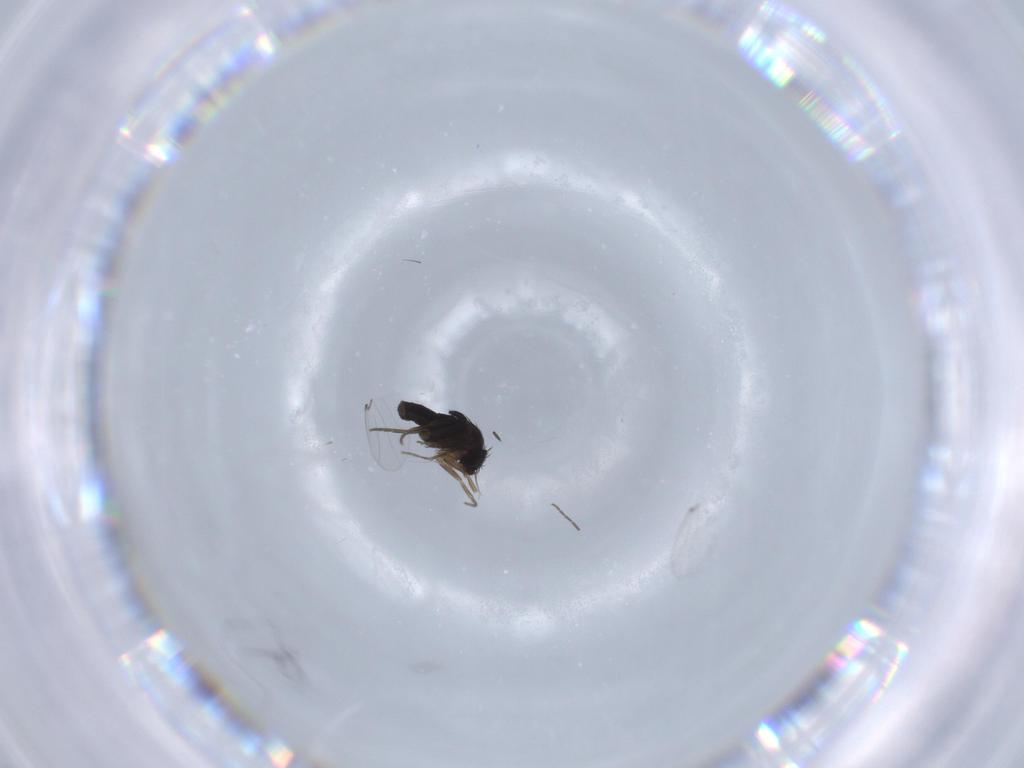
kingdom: Animalia
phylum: Arthropoda
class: Insecta
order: Diptera
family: Phoridae
